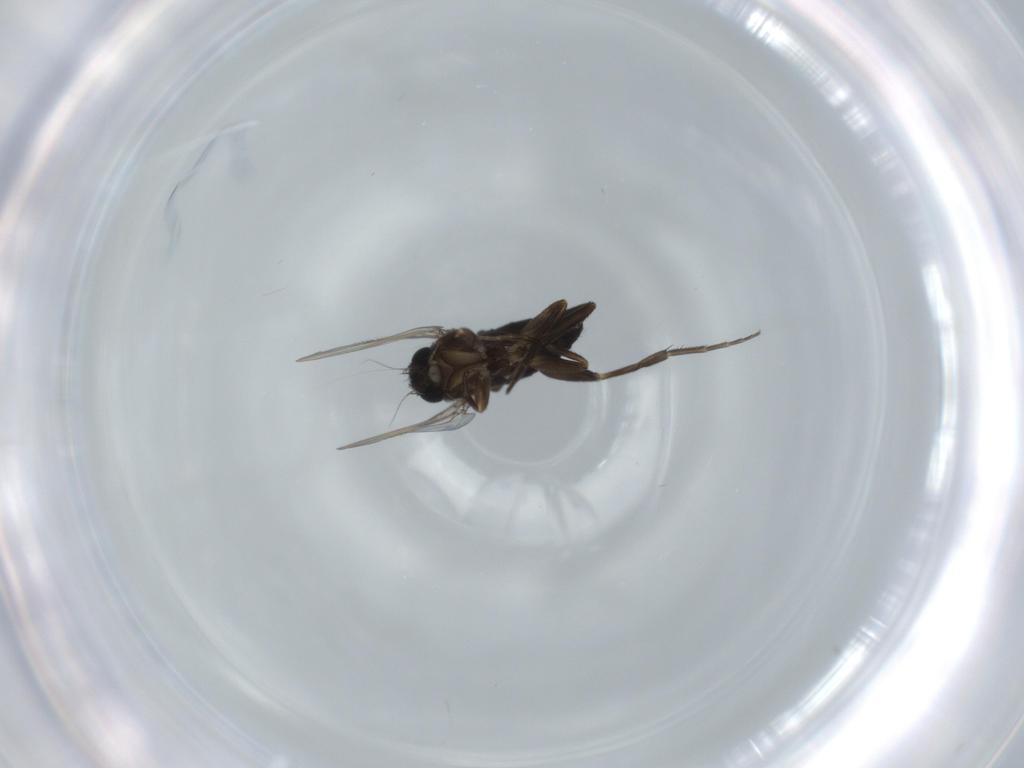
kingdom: Animalia
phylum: Arthropoda
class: Insecta
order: Diptera
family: Phoridae
